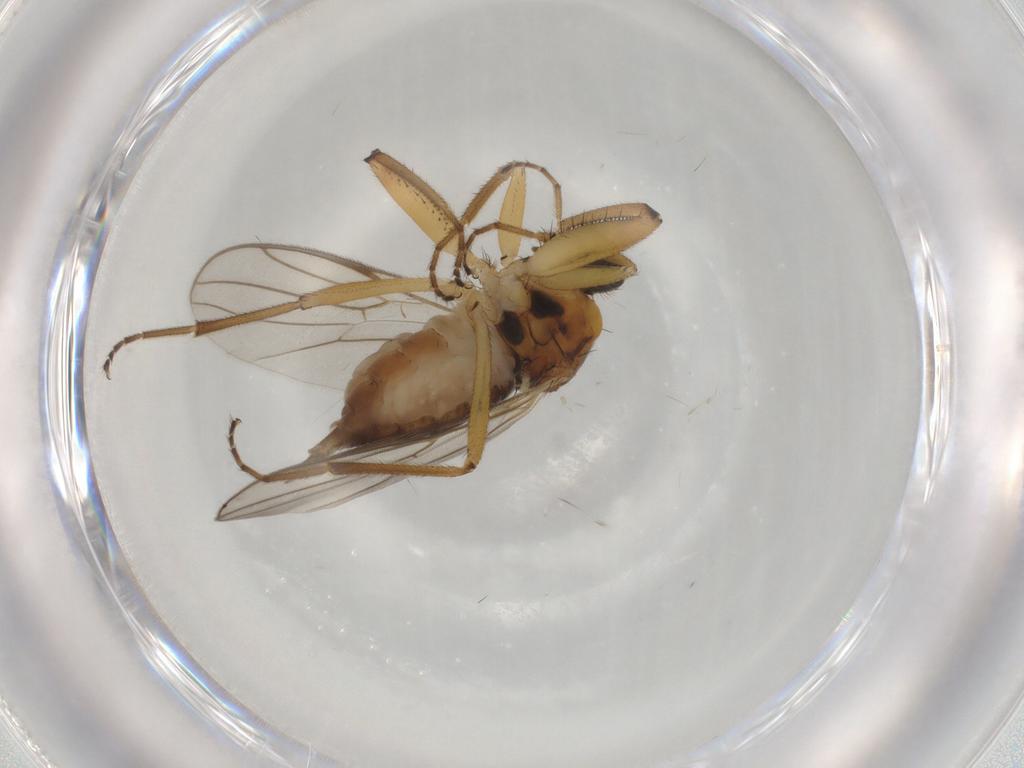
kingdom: Animalia
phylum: Arthropoda
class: Insecta
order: Diptera
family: Hybotidae
